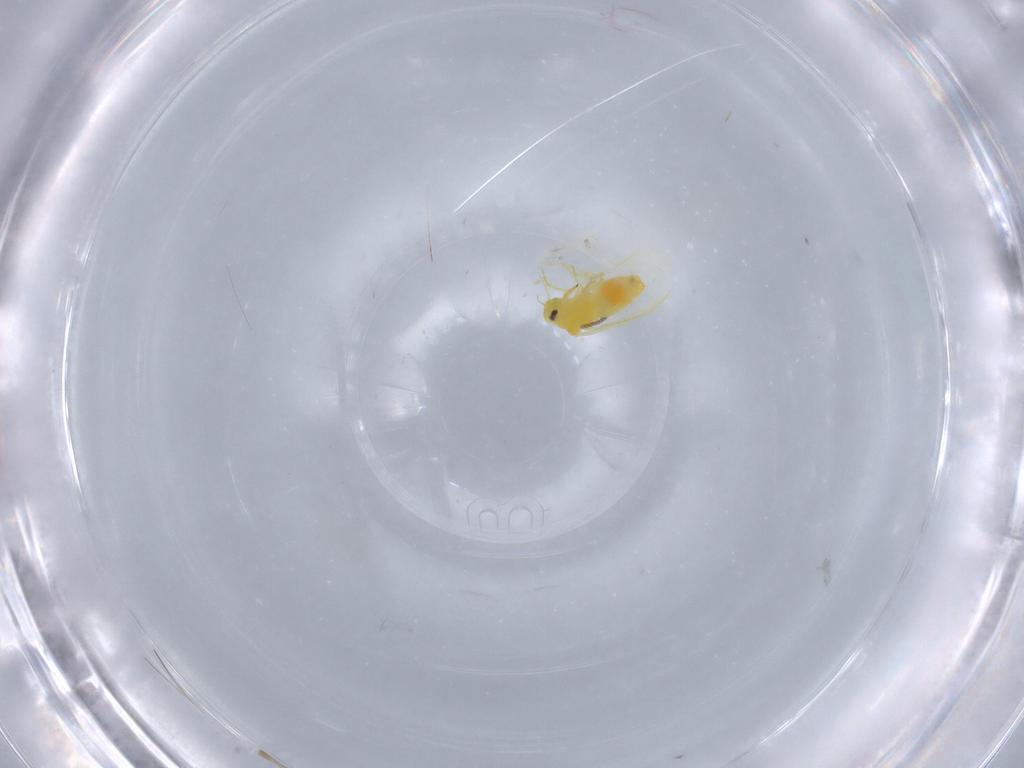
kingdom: Animalia
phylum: Arthropoda
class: Insecta
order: Hemiptera
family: Aleyrodidae
